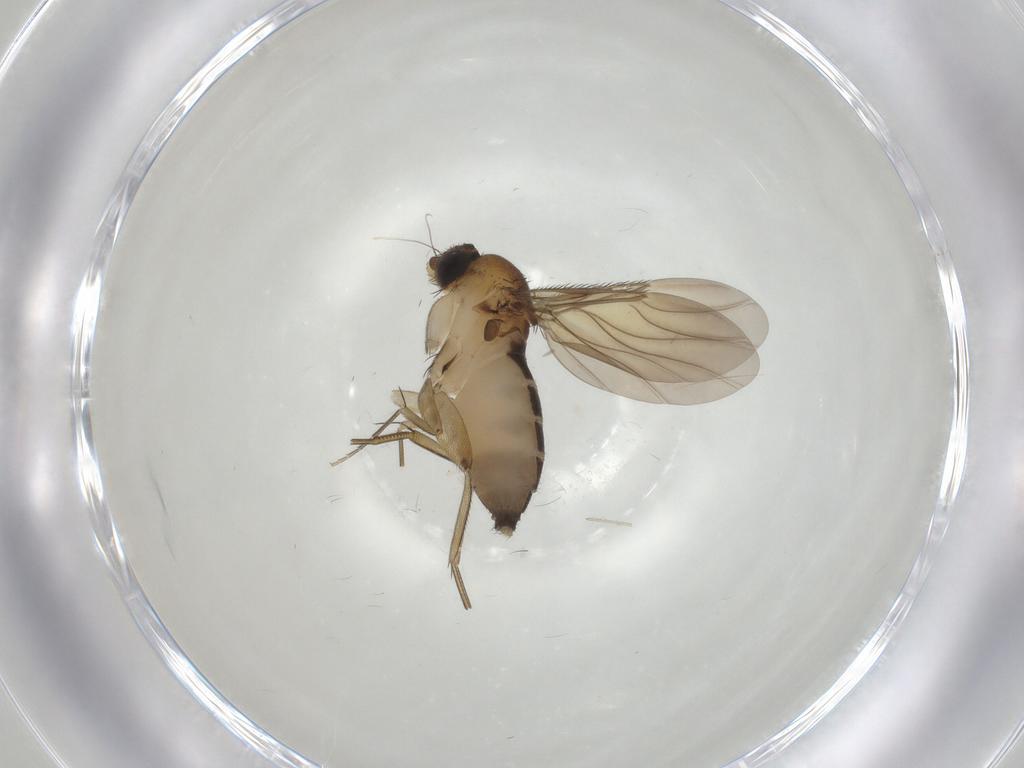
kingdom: Animalia
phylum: Arthropoda
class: Insecta
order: Diptera
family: Phoridae
